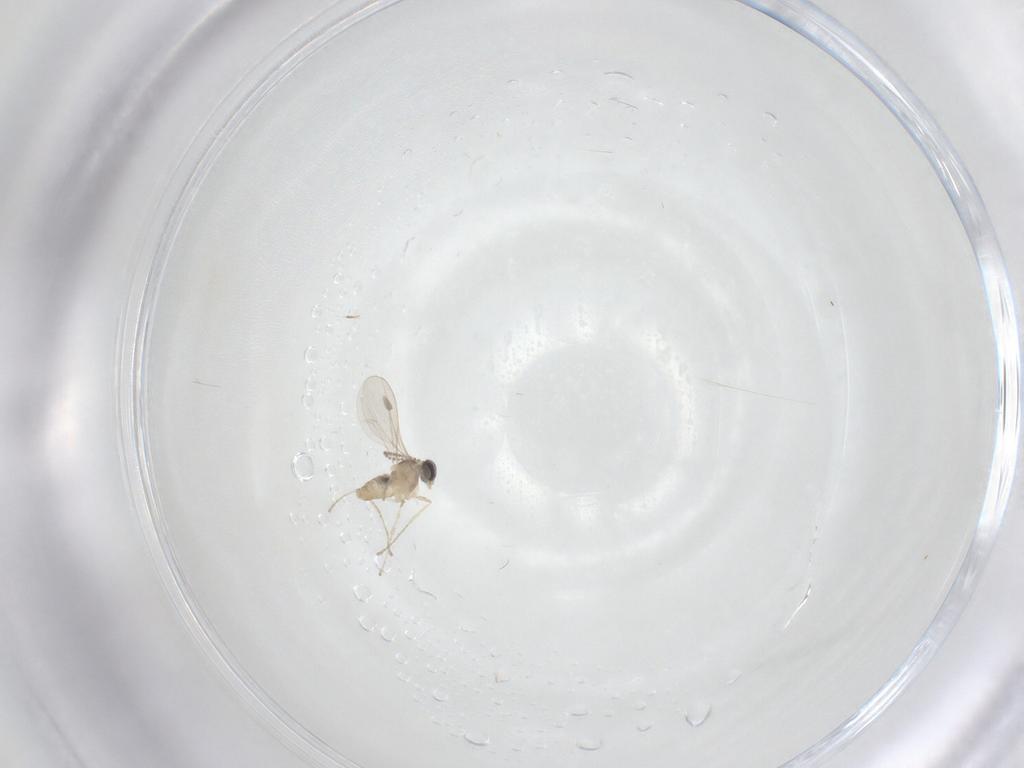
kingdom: Animalia
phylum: Arthropoda
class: Insecta
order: Diptera
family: Cecidomyiidae
